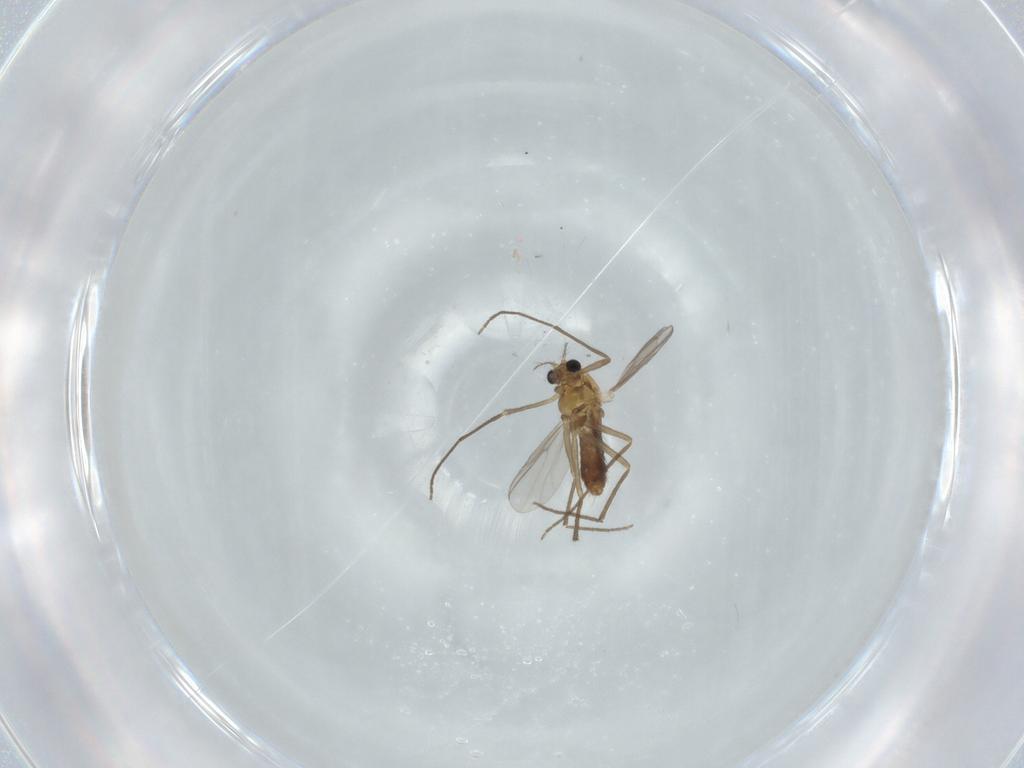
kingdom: Animalia
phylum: Arthropoda
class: Insecta
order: Diptera
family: Chironomidae
